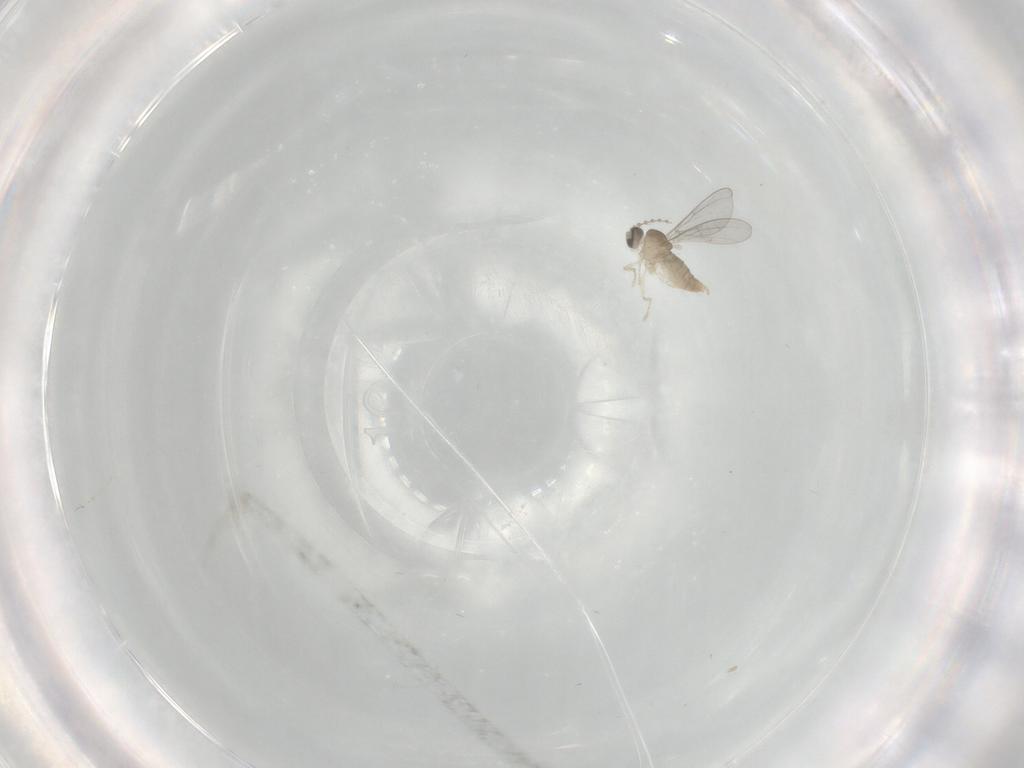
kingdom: Animalia
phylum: Arthropoda
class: Insecta
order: Diptera
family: Cecidomyiidae
